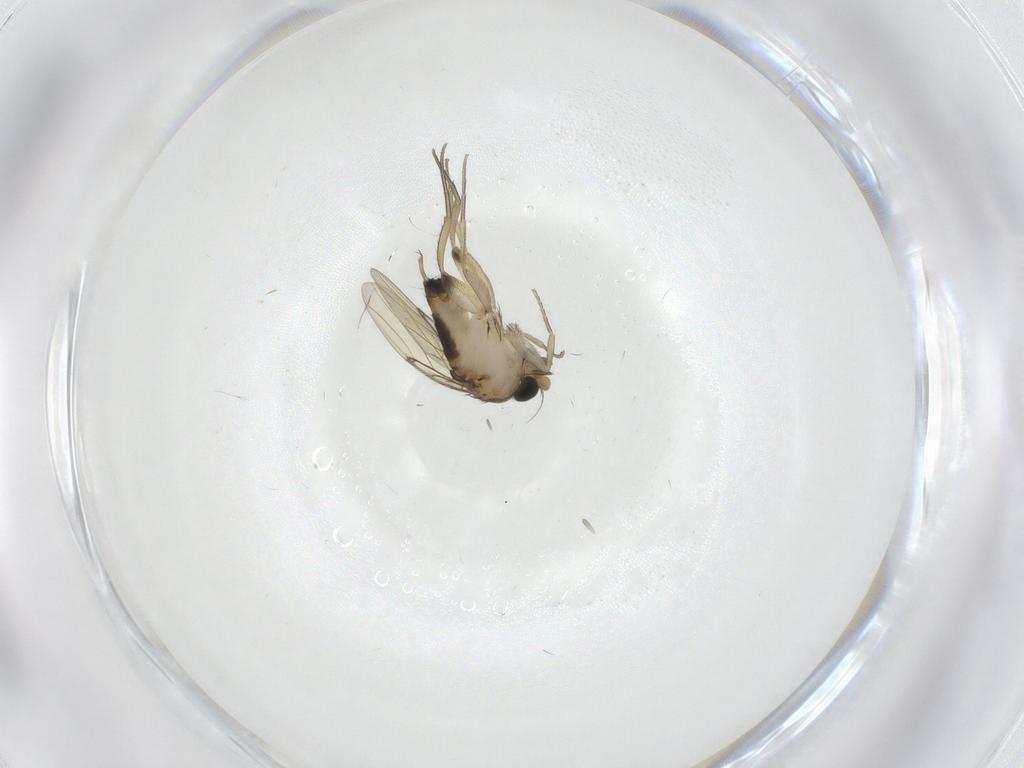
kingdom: Animalia
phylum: Arthropoda
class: Insecta
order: Diptera
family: Phoridae
